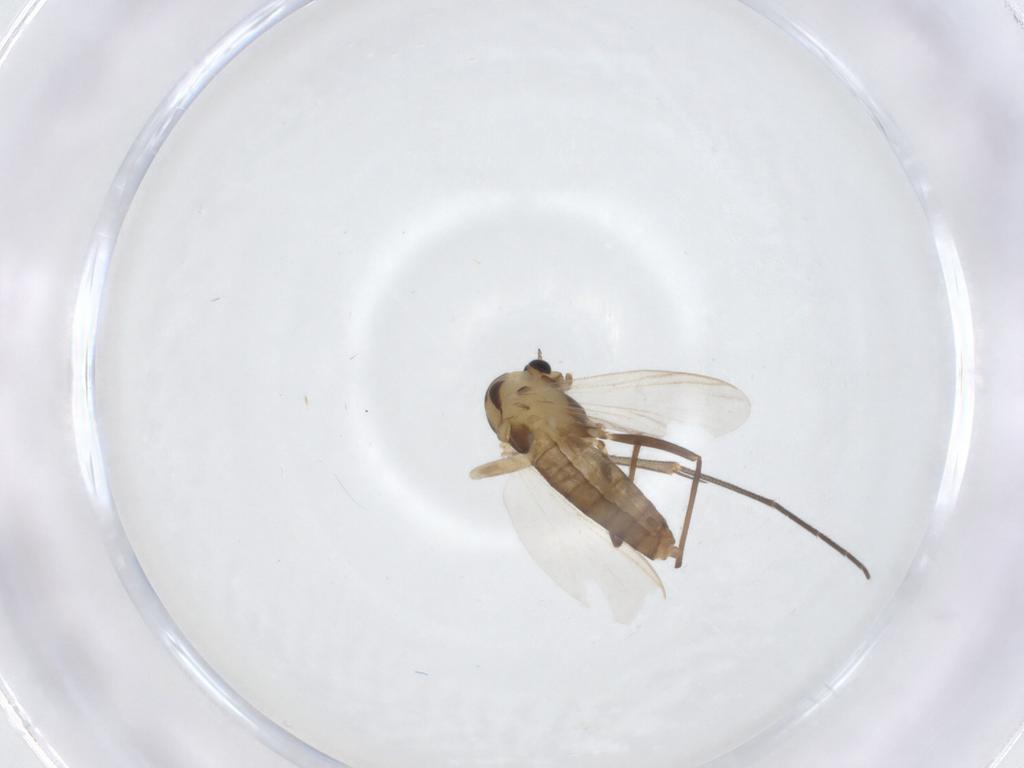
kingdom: Animalia
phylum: Arthropoda
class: Insecta
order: Diptera
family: Chironomidae
